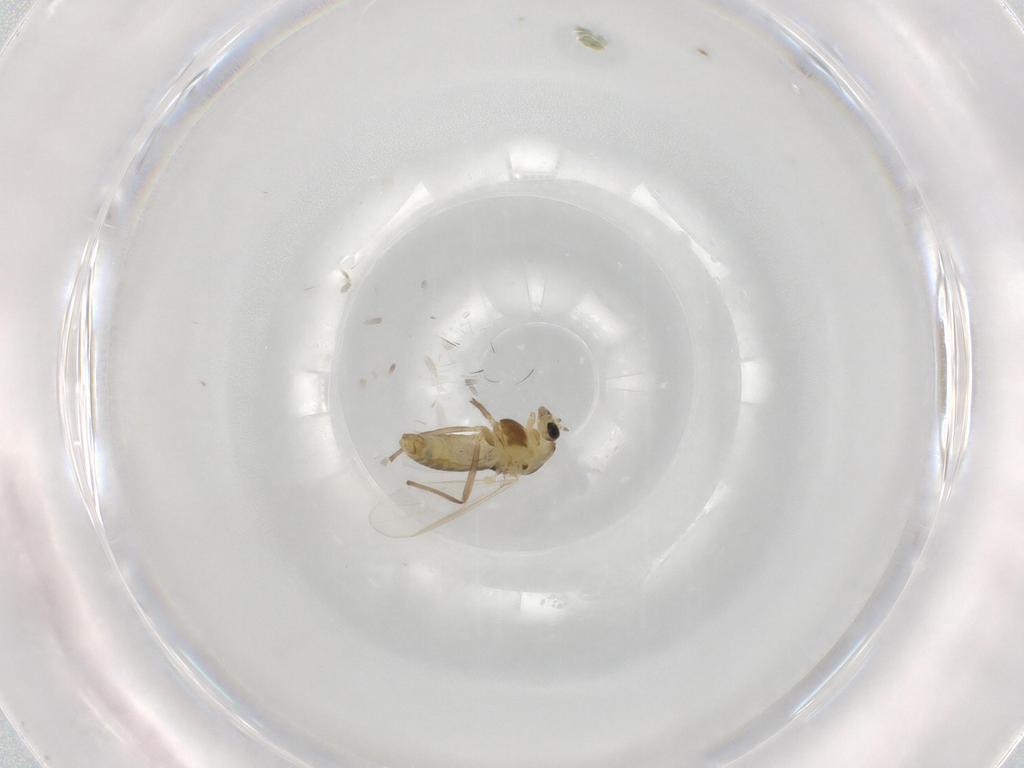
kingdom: Animalia
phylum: Arthropoda
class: Insecta
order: Diptera
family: Chironomidae
